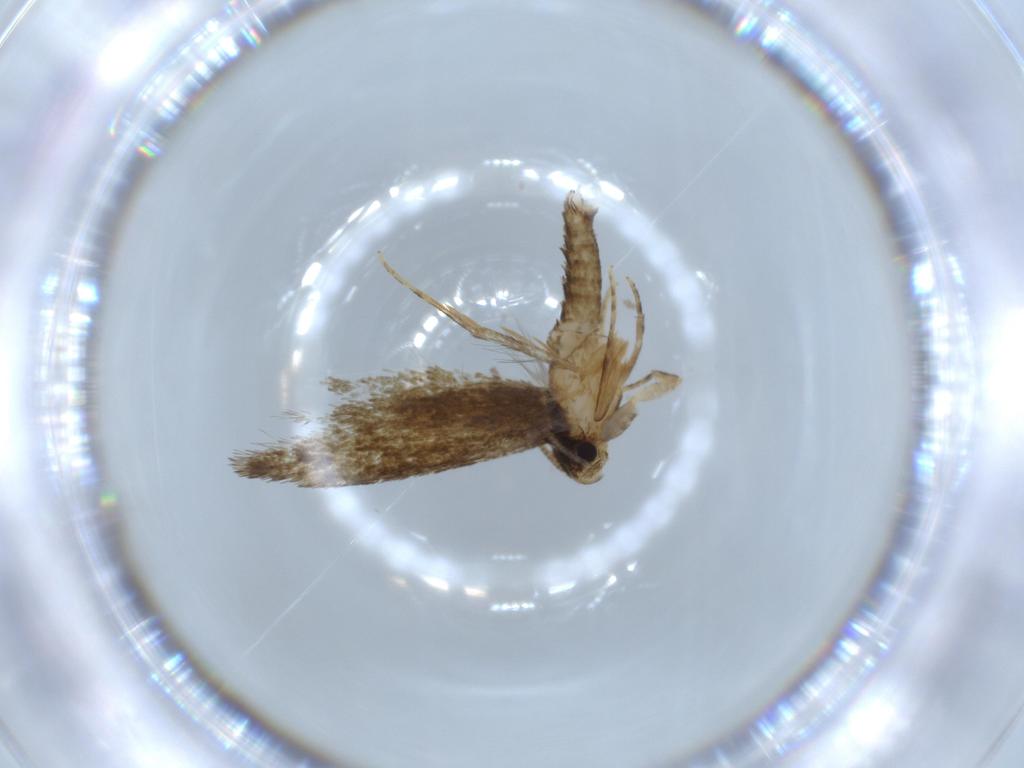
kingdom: Animalia
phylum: Arthropoda
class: Insecta
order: Lepidoptera
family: Tineidae
